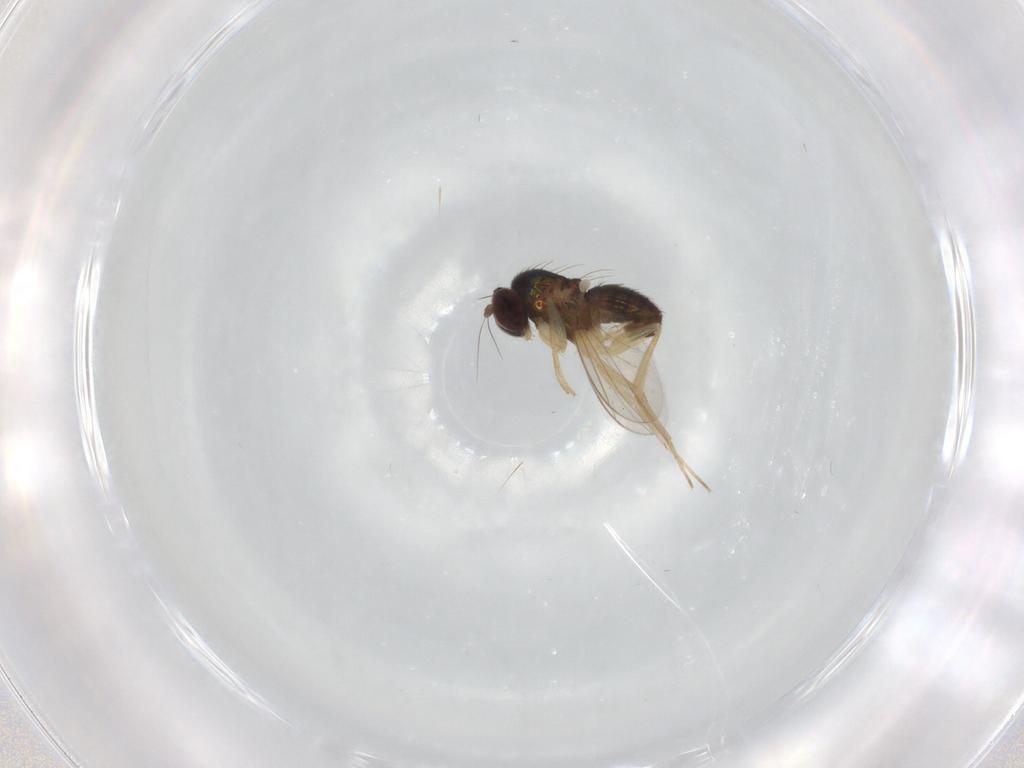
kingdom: Animalia
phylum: Arthropoda
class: Insecta
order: Diptera
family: Dolichopodidae
